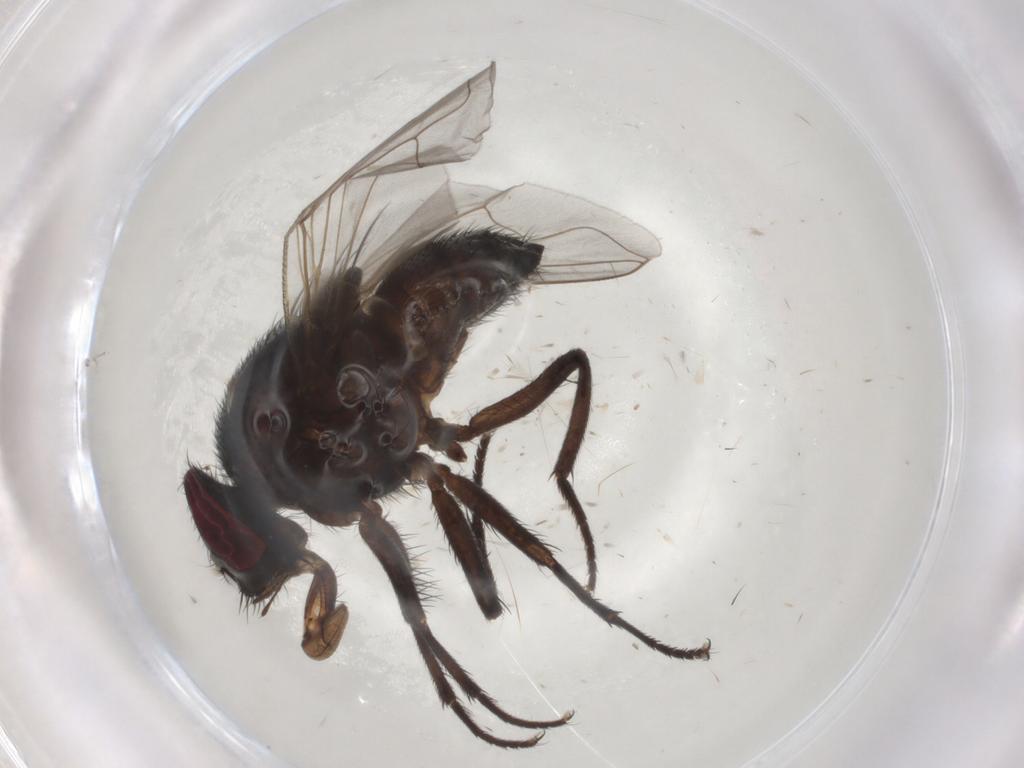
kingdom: Animalia
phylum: Arthropoda
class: Insecta
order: Diptera
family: Muscidae
